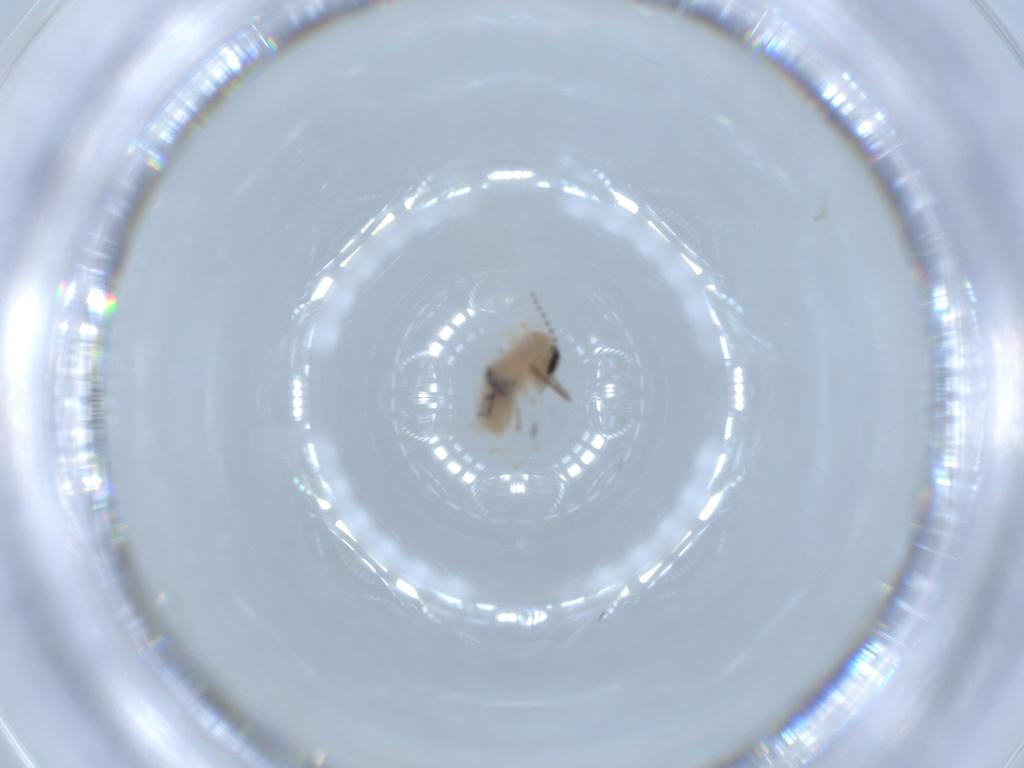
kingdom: Animalia
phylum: Arthropoda
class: Insecta
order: Diptera
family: Psychodidae
